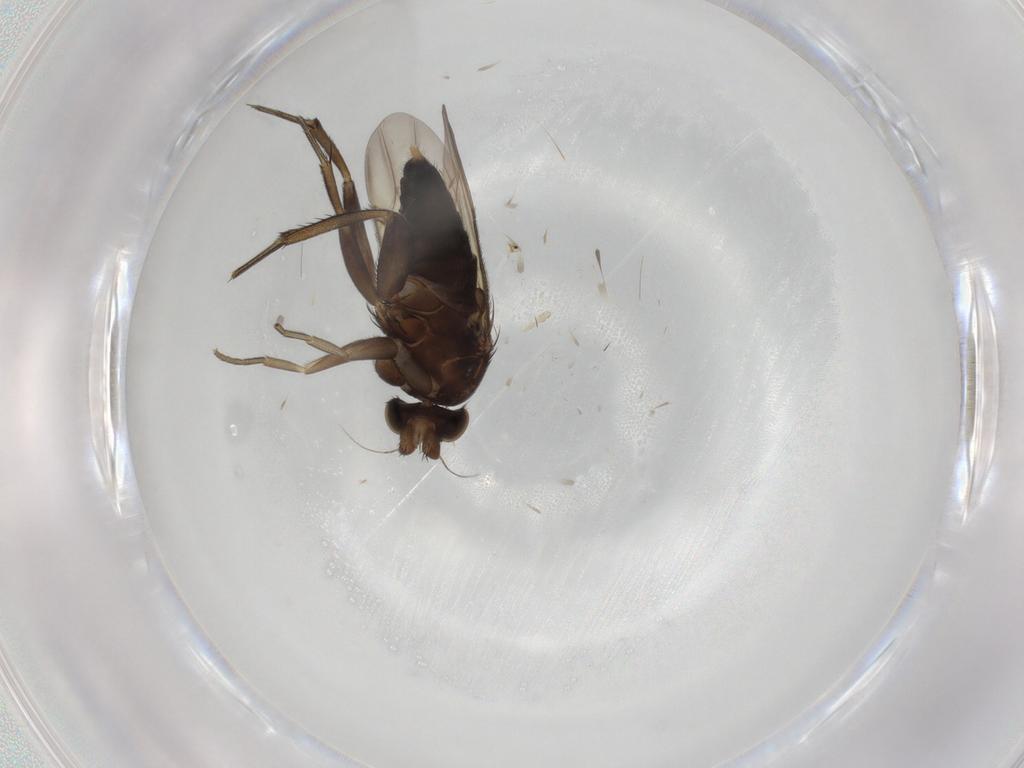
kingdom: Animalia
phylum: Arthropoda
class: Insecta
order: Diptera
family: Phoridae
